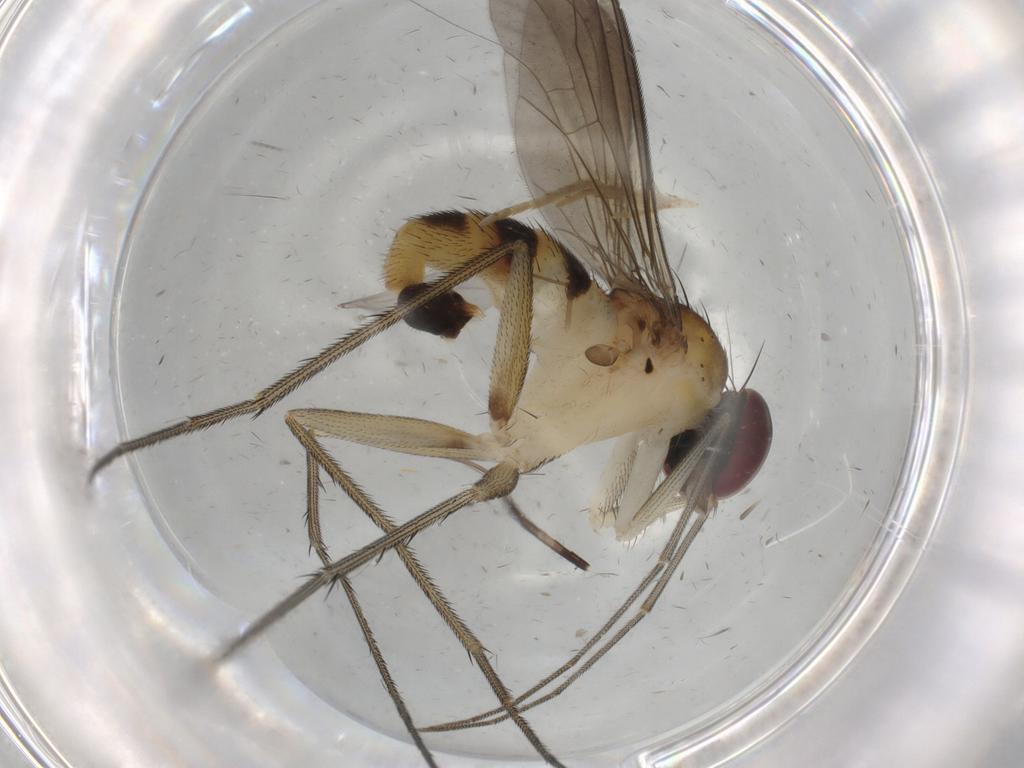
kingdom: Animalia
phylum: Arthropoda
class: Insecta
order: Diptera
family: Dolichopodidae
